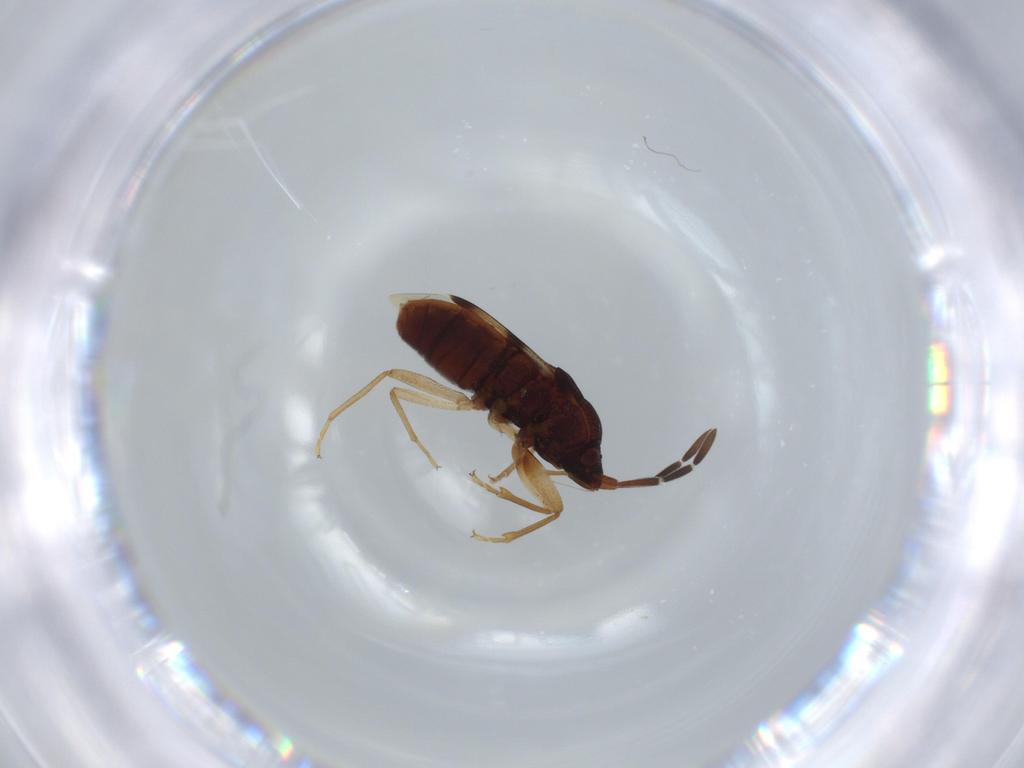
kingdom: Animalia
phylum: Arthropoda
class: Insecta
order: Hemiptera
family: Rhyparochromidae
